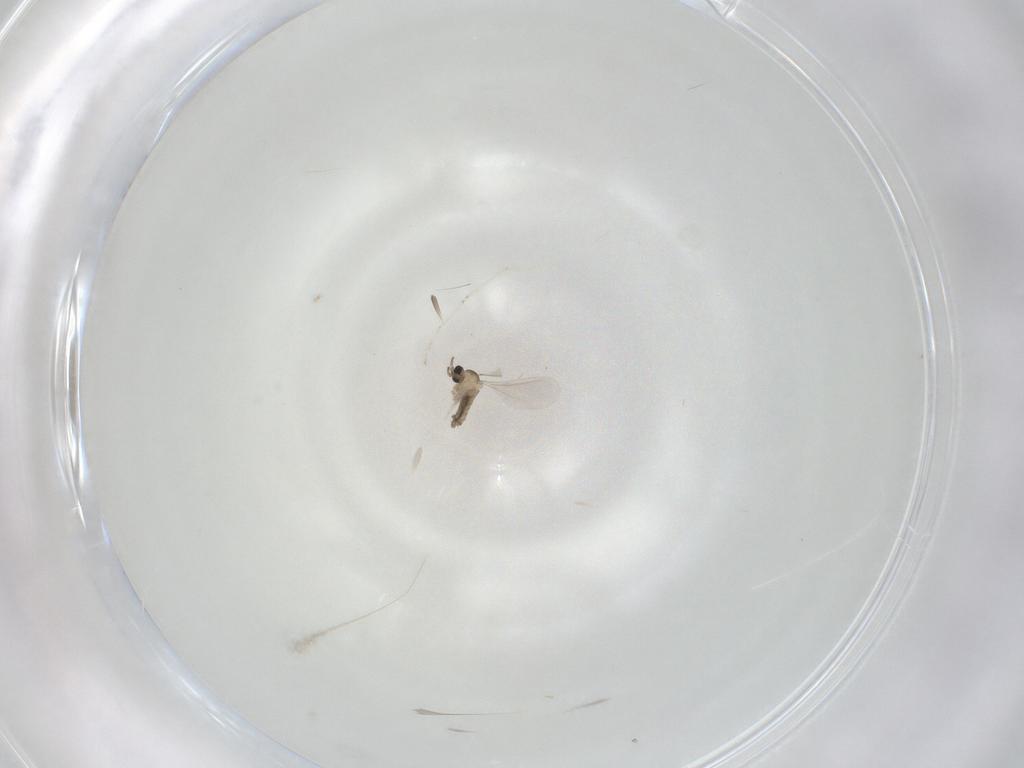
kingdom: Animalia
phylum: Arthropoda
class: Insecta
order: Diptera
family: Cecidomyiidae
